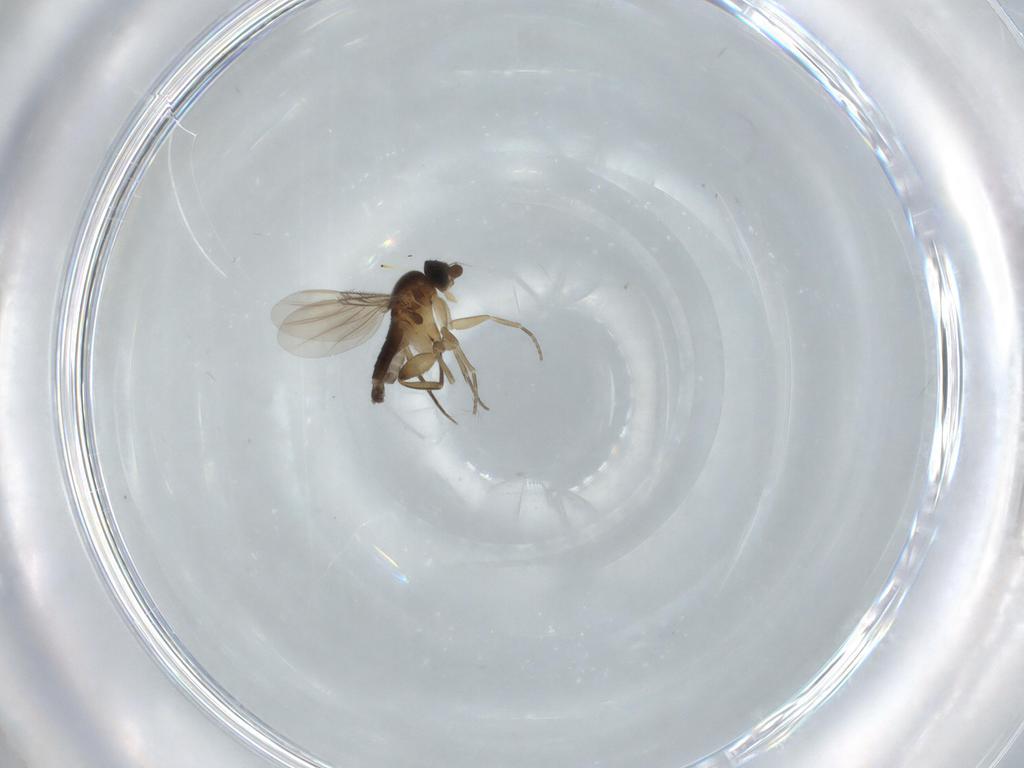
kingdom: Animalia
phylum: Arthropoda
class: Insecta
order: Diptera
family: Phoridae
